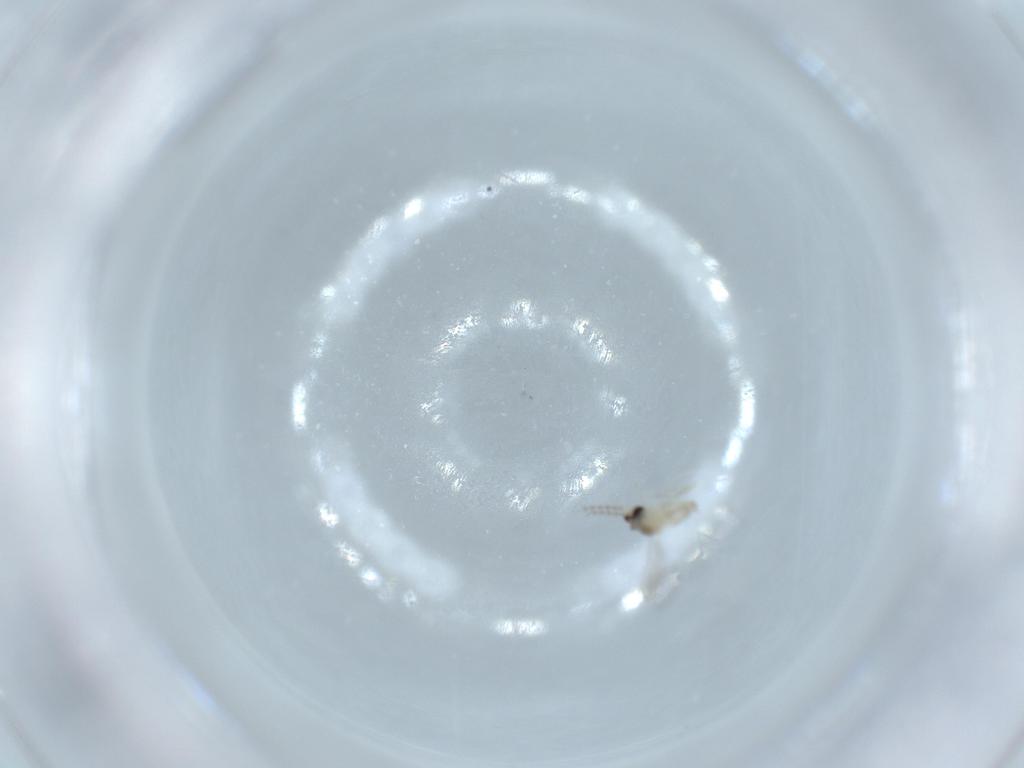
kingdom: Animalia
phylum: Arthropoda
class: Insecta
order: Diptera
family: Cecidomyiidae
